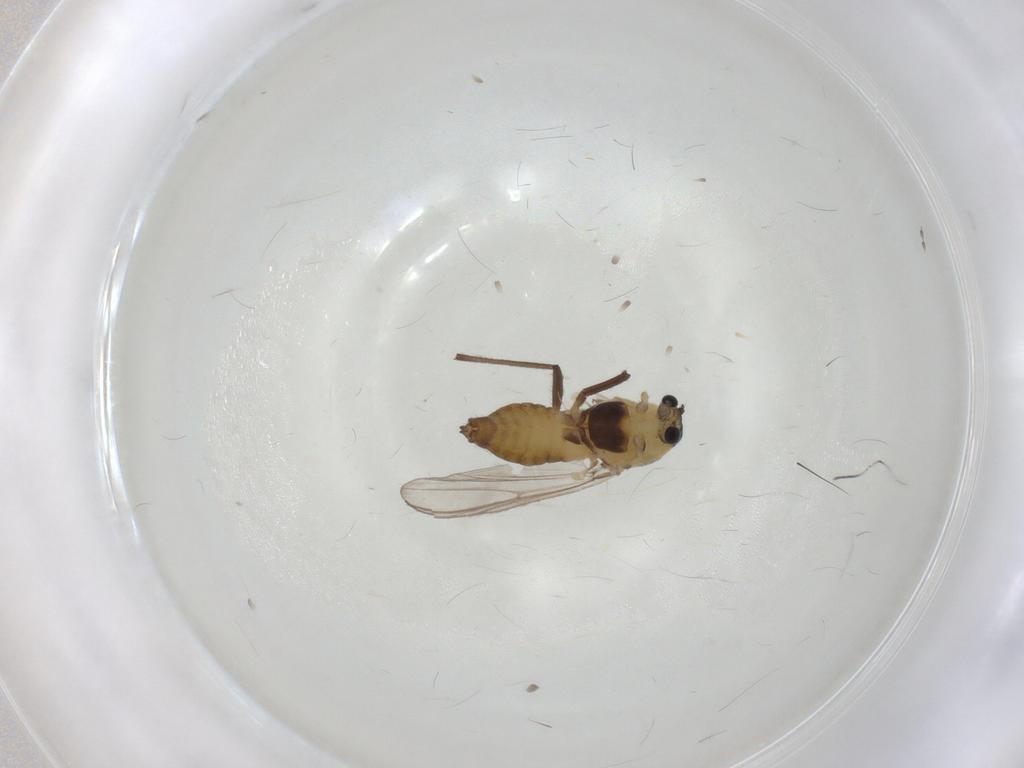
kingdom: Animalia
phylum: Arthropoda
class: Insecta
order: Diptera
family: Chironomidae
